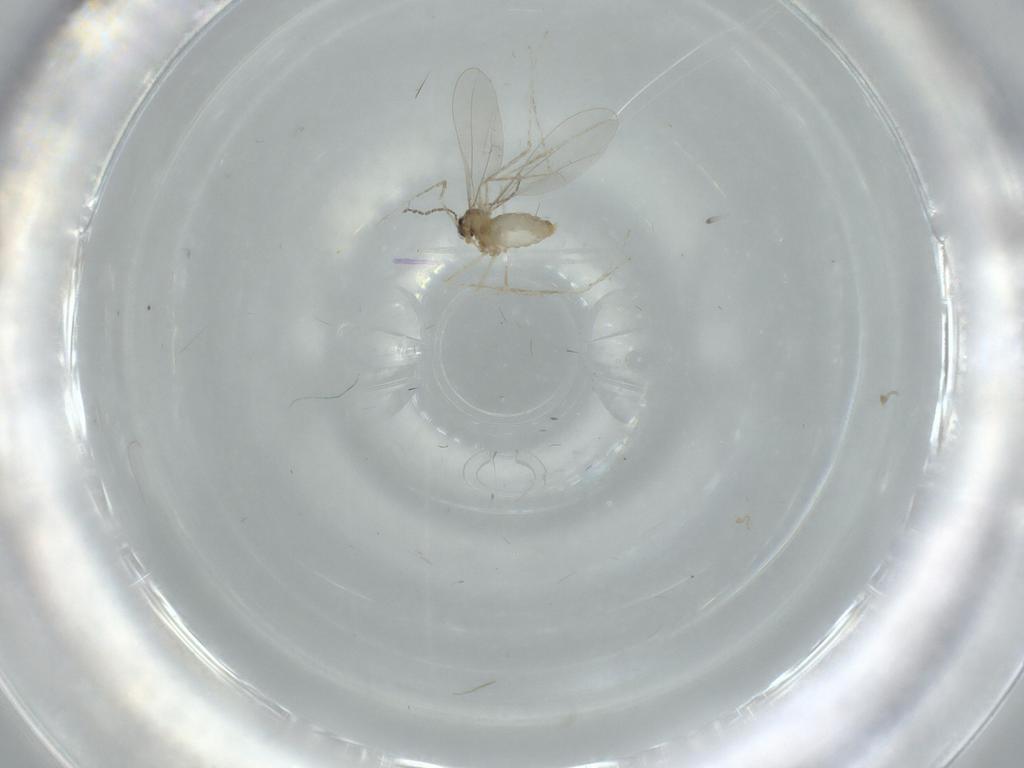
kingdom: Animalia
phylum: Arthropoda
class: Insecta
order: Diptera
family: Cecidomyiidae
